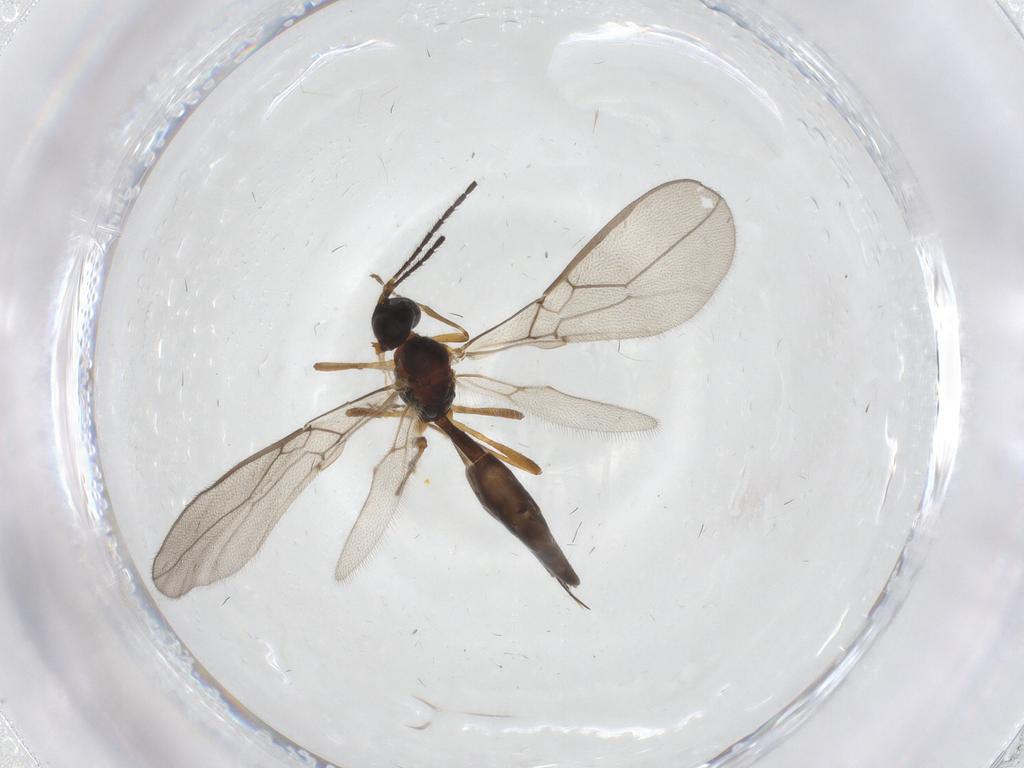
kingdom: Animalia
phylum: Arthropoda
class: Insecta
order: Hymenoptera
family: Braconidae
